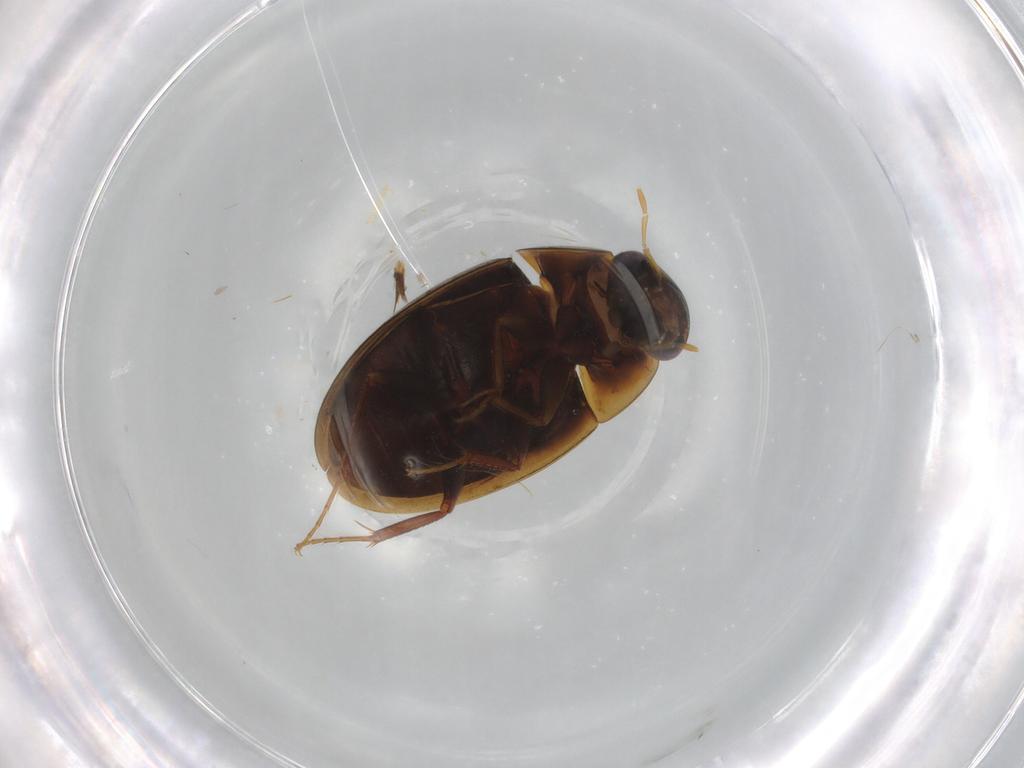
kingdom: Animalia
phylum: Arthropoda
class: Insecta
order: Coleoptera
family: Hydrophilidae
